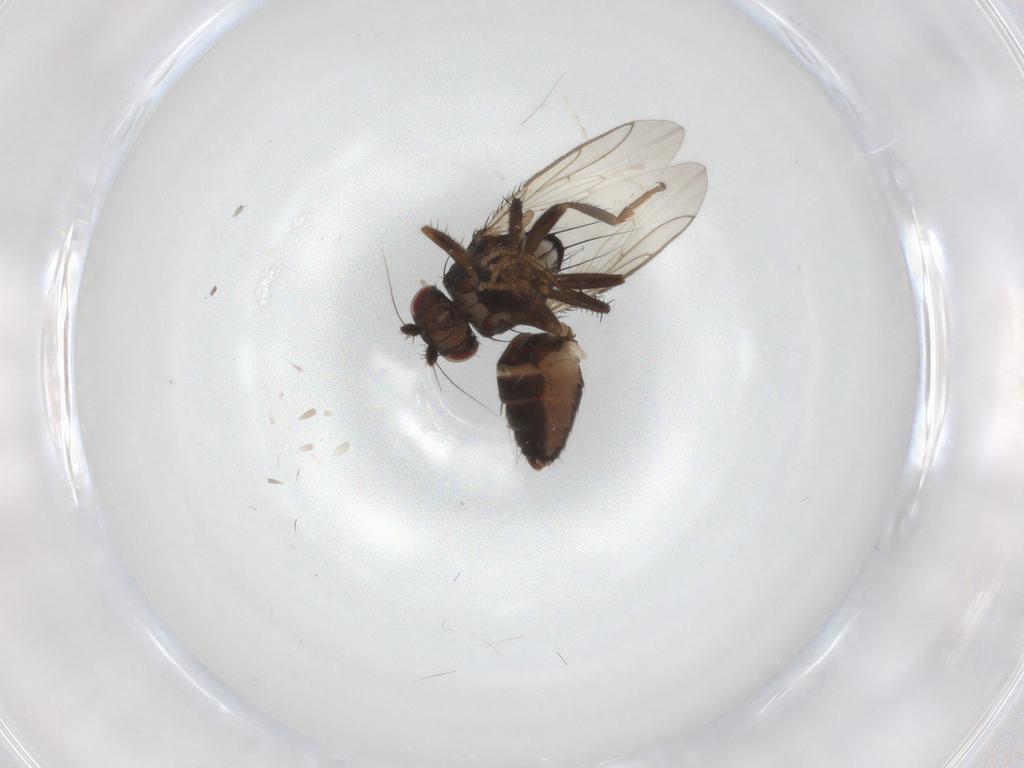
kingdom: Animalia
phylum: Arthropoda
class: Insecta
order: Diptera
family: Sphaeroceridae
